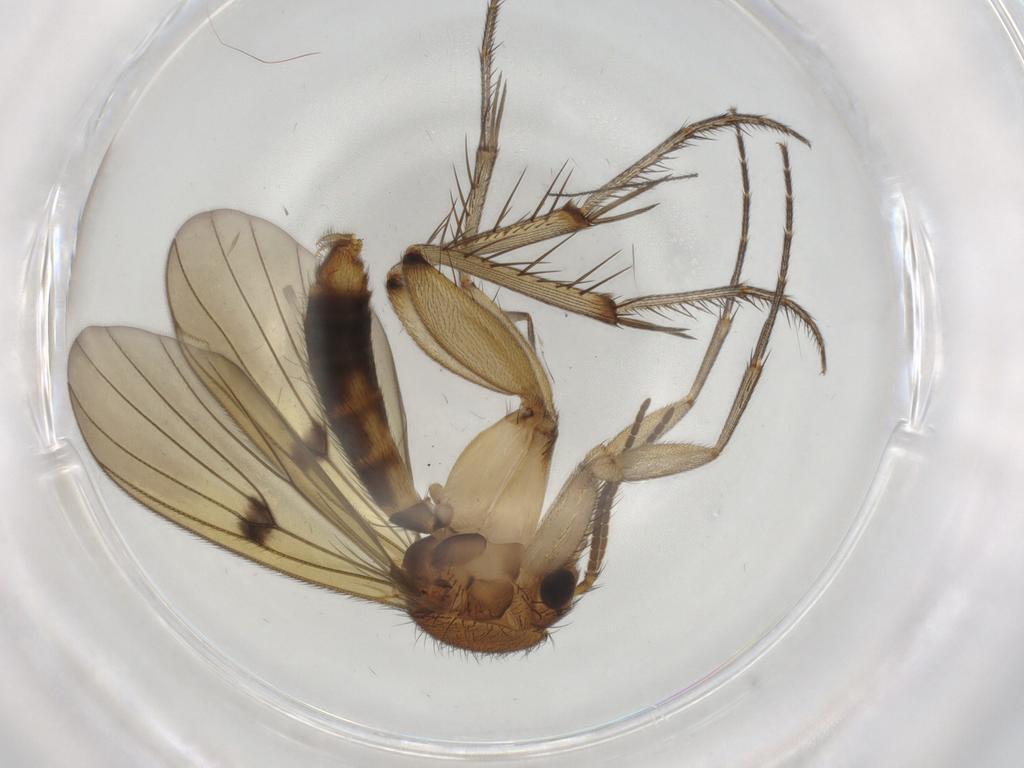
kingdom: Animalia
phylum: Arthropoda
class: Insecta
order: Diptera
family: Mycetophilidae
